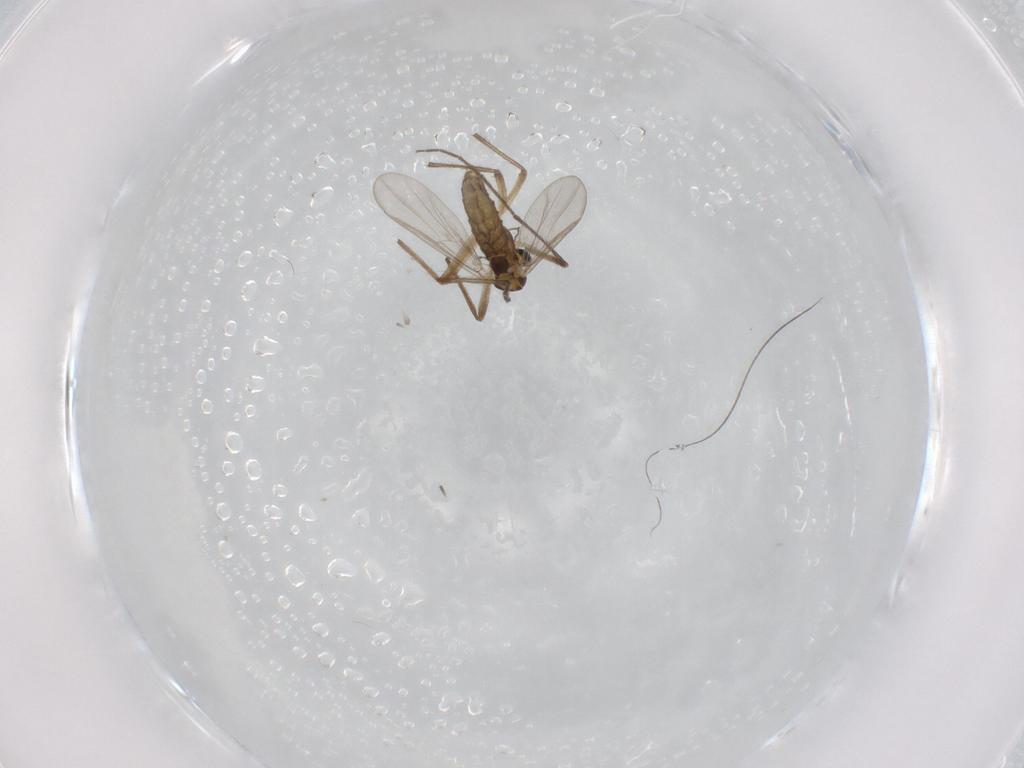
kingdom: Animalia
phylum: Arthropoda
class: Insecta
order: Diptera
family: Chironomidae
